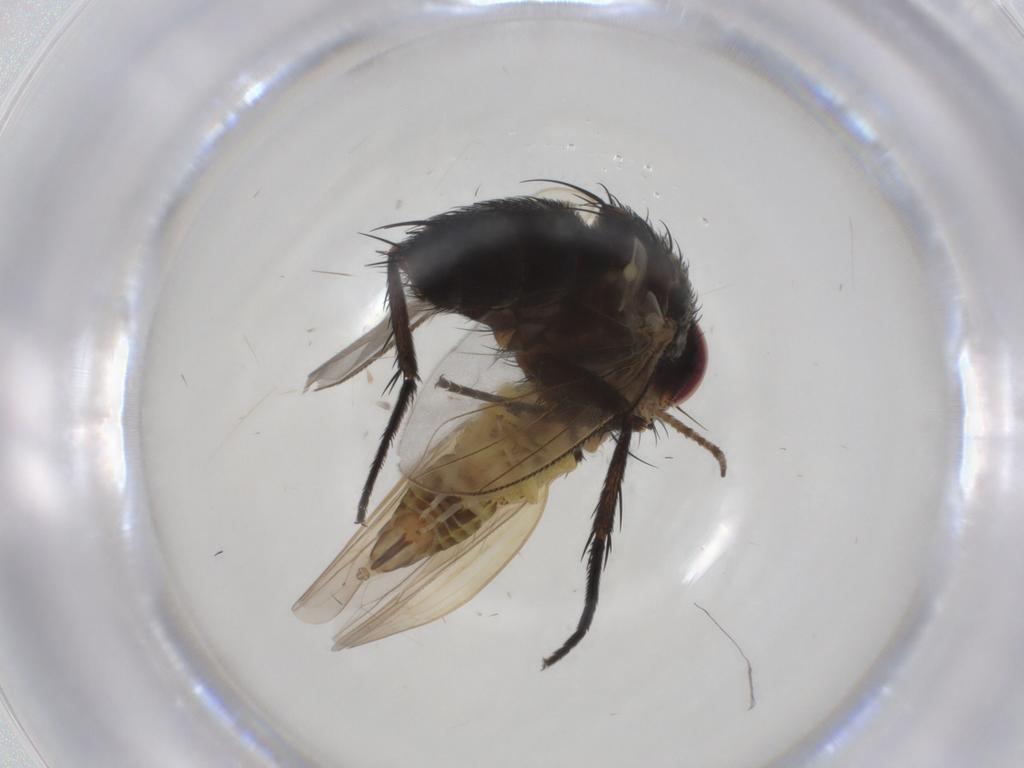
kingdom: Animalia
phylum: Arthropoda
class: Insecta
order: Diptera
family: Tachinidae
